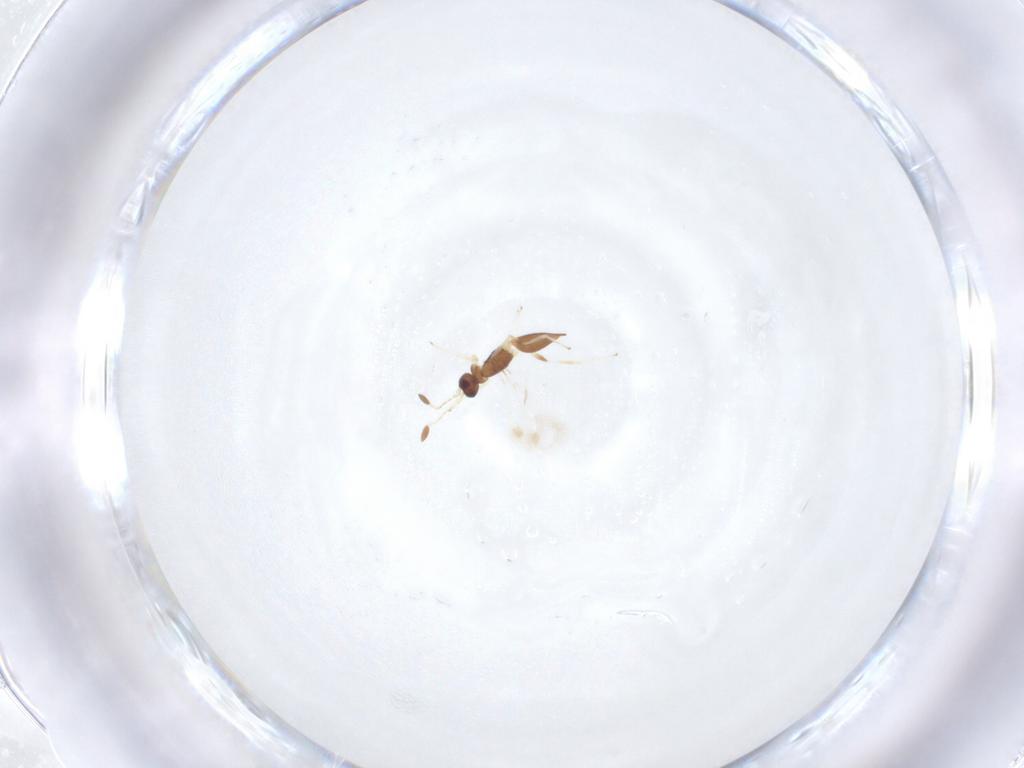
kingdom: Animalia
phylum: Arthropoda
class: Insecta
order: Hymenoptera
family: Mymaridae
